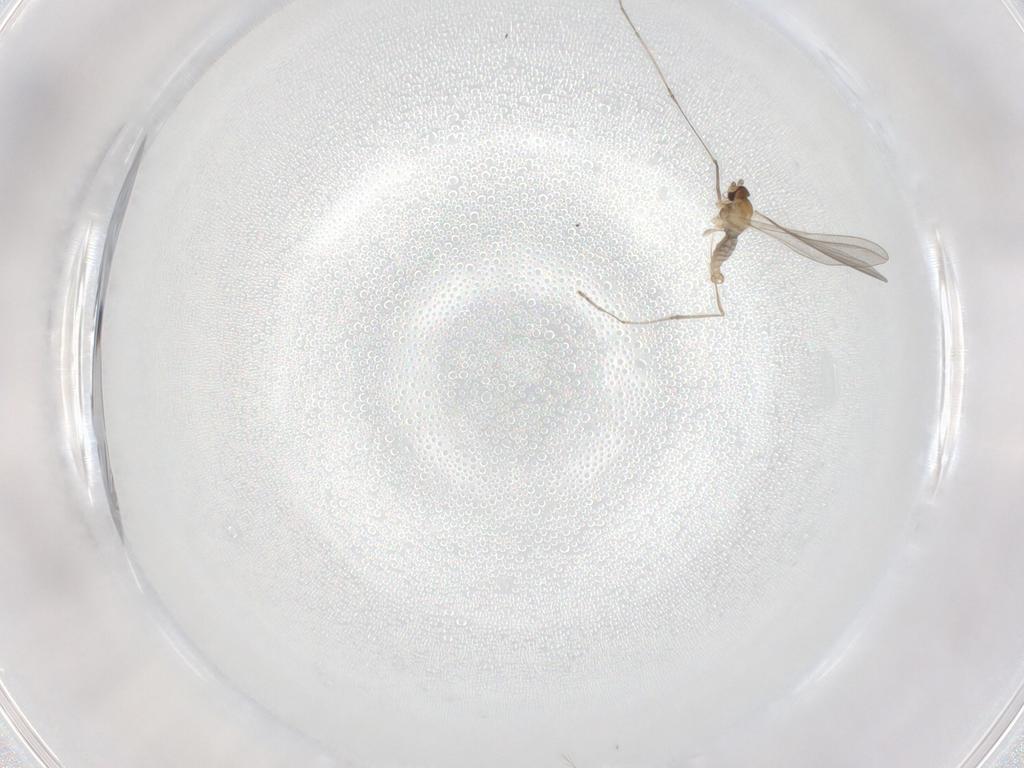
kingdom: Animalia
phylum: Arthropoda
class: Insecta
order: Diptera
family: Cecidomyiidae
